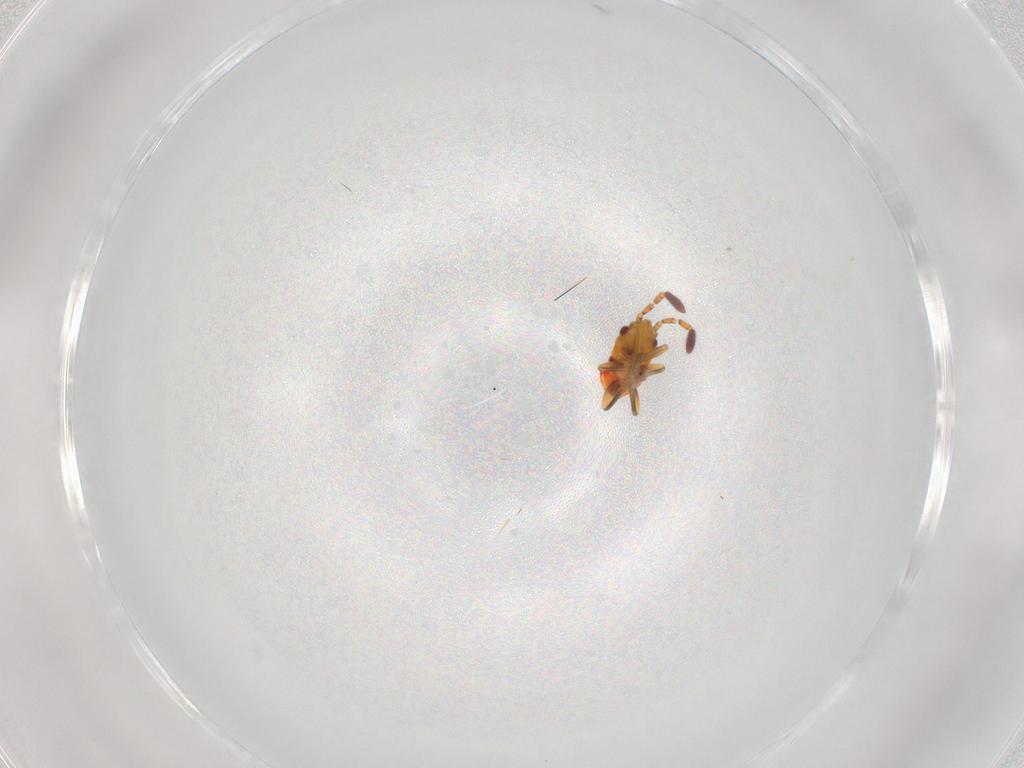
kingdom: Animalia
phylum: Arthropoda
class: Insecta
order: Hemiptera
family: Rhyparochromidae
